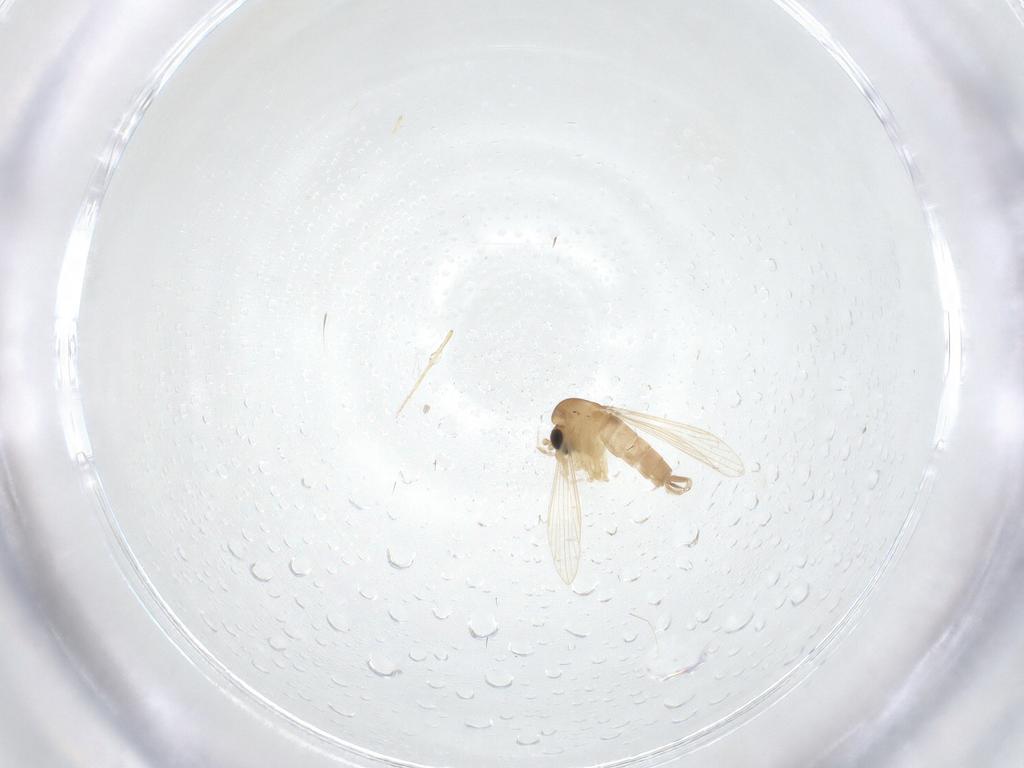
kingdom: Animalia
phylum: Arthropoda
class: Insecta
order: Diptera
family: Psychodidae
